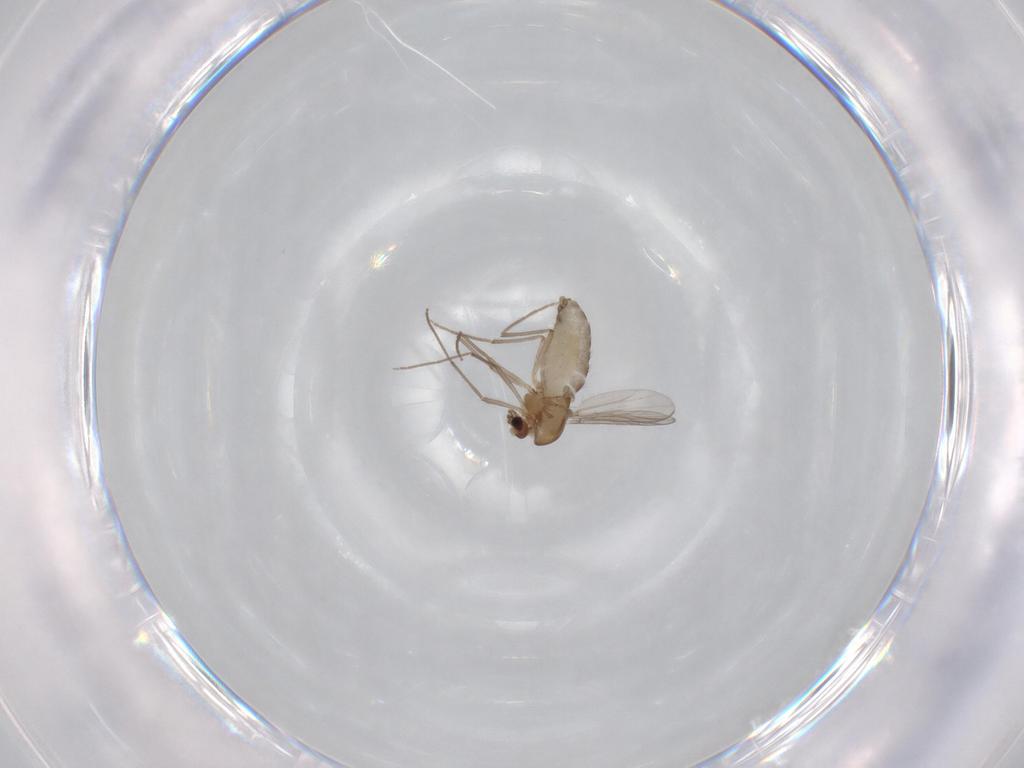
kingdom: Animalia
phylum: Arthropoda
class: Insecta
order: Diptera
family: Chironomidae
